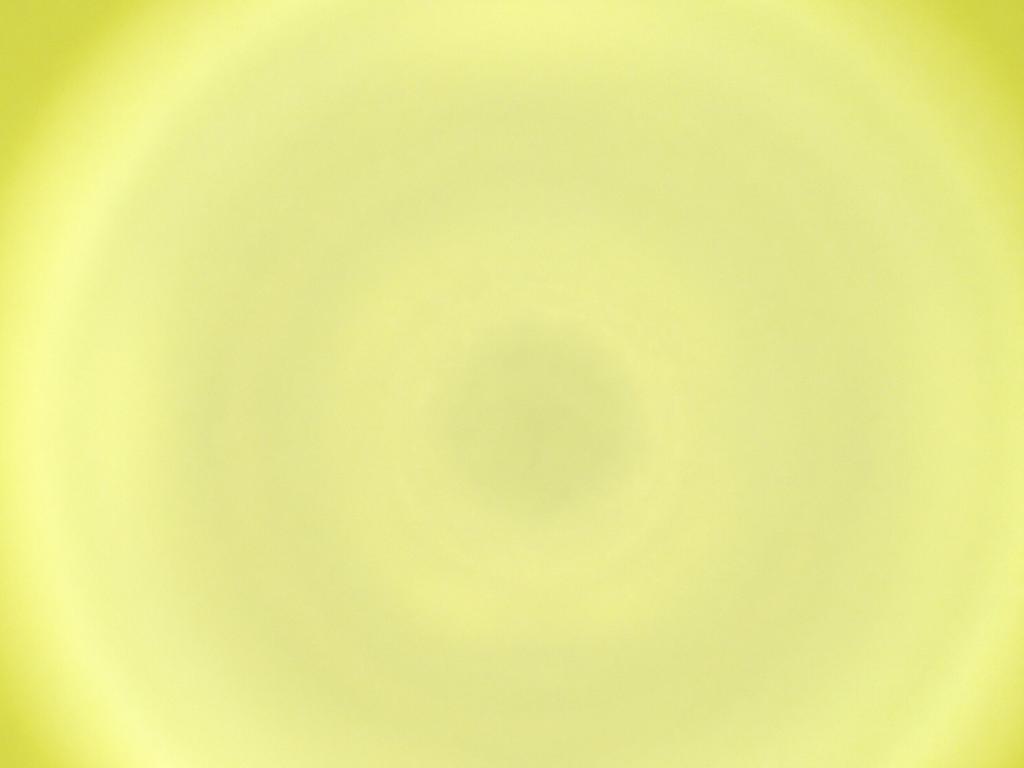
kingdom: Animalia
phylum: Arthropoda
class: Insecta
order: Diptera
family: Cecidomyiidae
